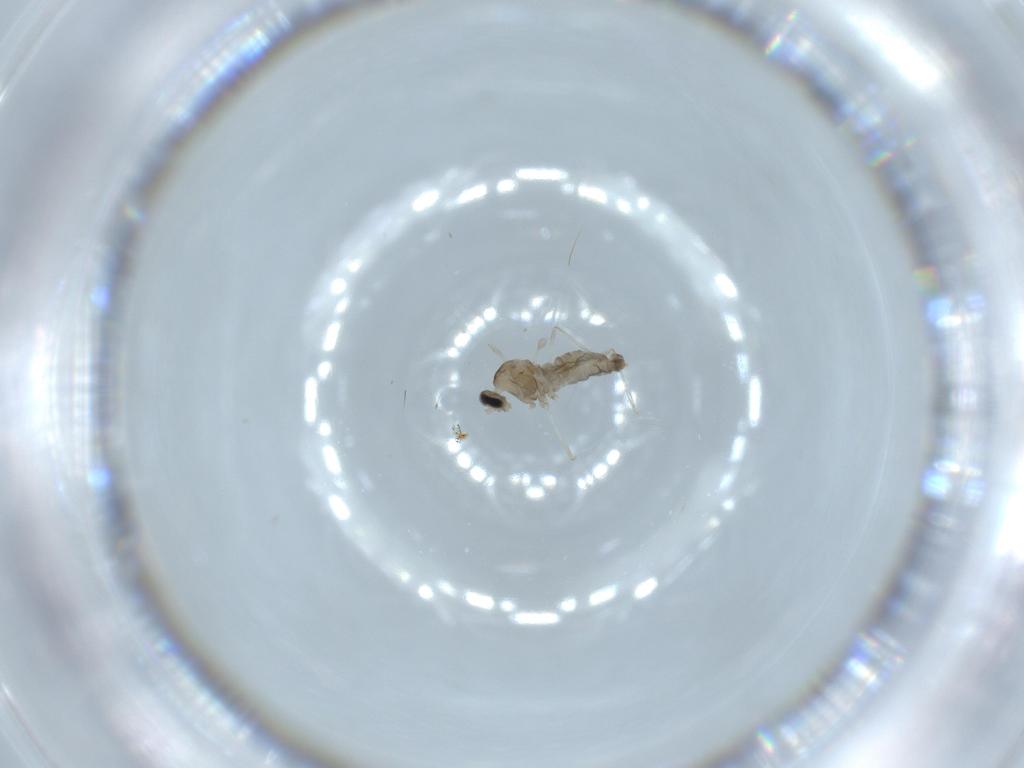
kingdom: Animalia
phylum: Arthropoda
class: Insecta
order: Diptera
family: Cecidomyiidae
